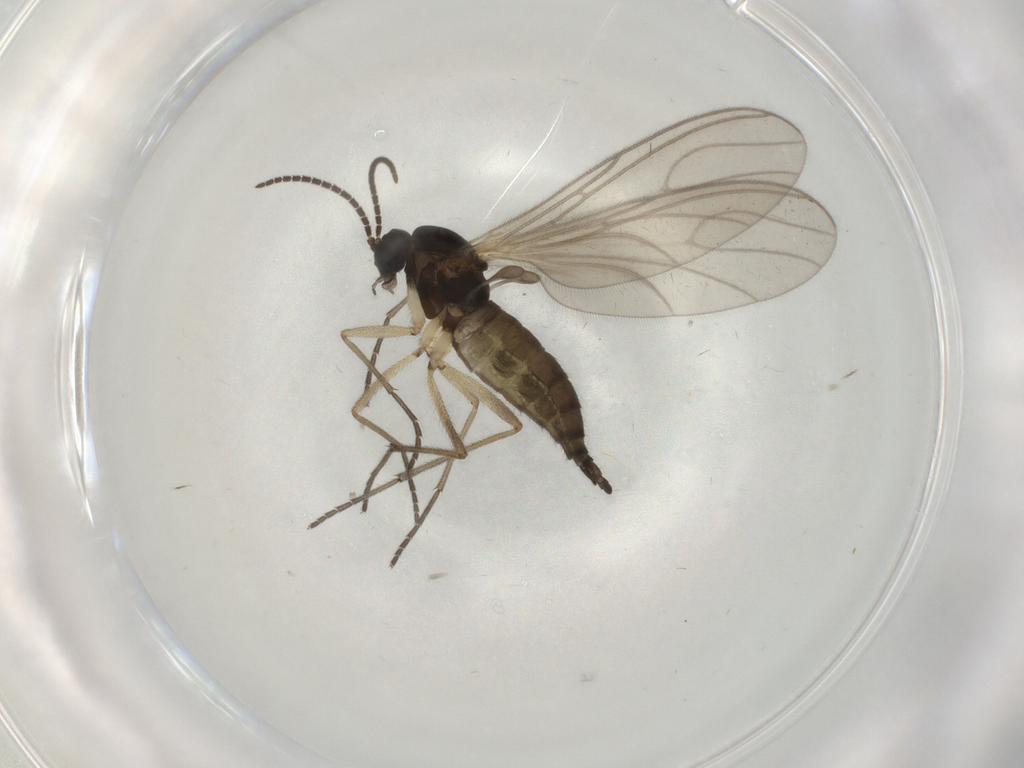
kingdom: Animalia
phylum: Arthropoda
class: Insecta
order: Diptera
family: Sciaridae
